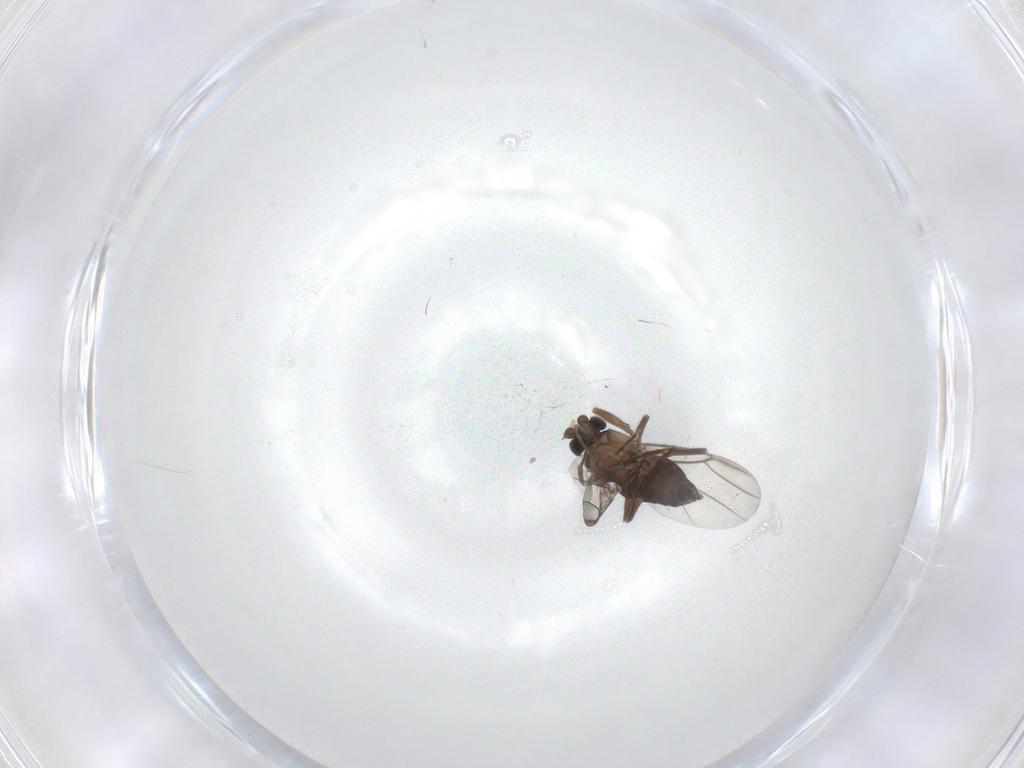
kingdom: Animalia
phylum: Arthropoda
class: Insecta
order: Diptera
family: Phoridae
